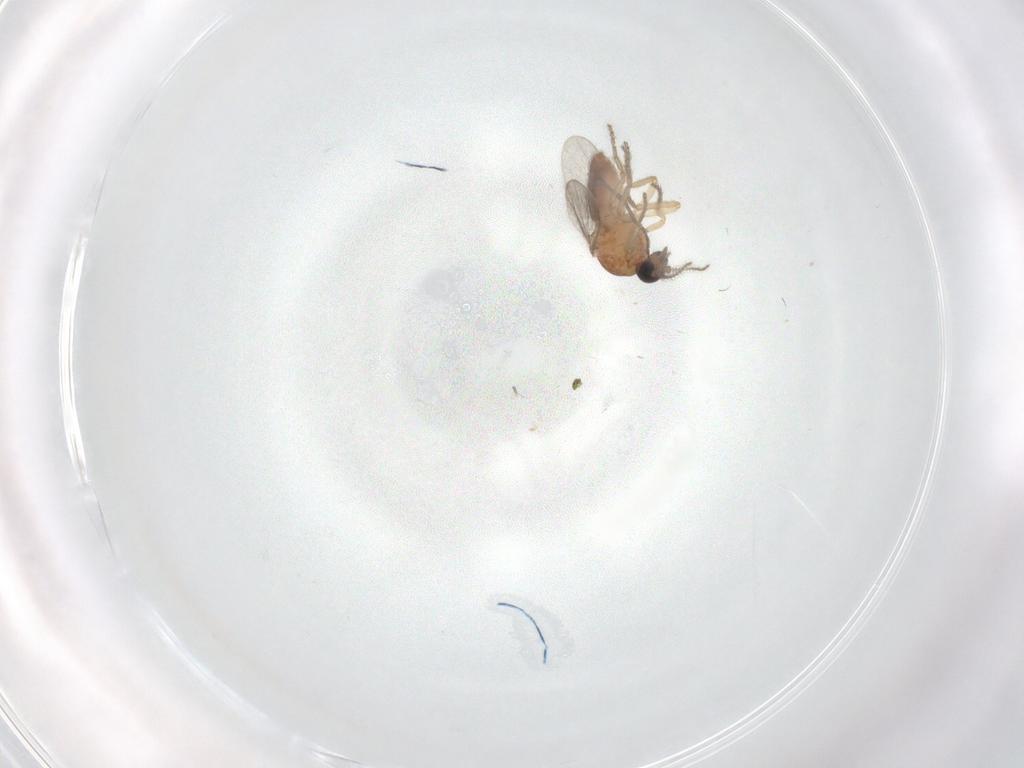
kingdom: Animalia
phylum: Arthropoda
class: Insecta
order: Diptera
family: Ceratopogonidae
